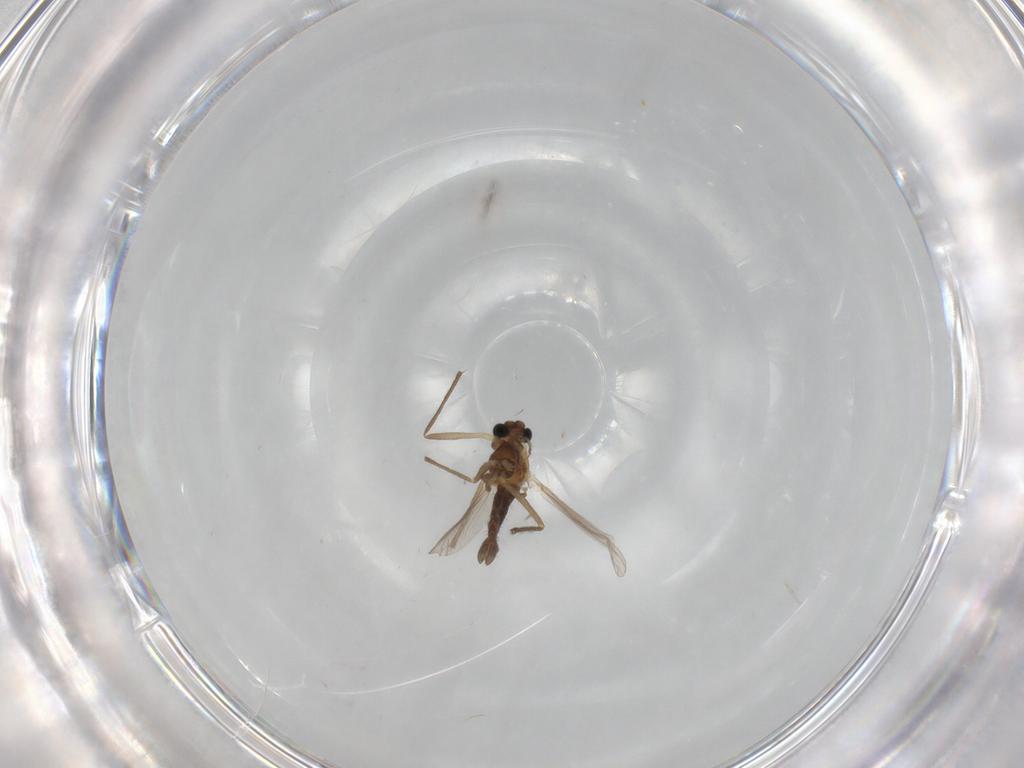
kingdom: Animalia
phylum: Arthropoda
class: Insecta
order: Diptera
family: Chironomidae
